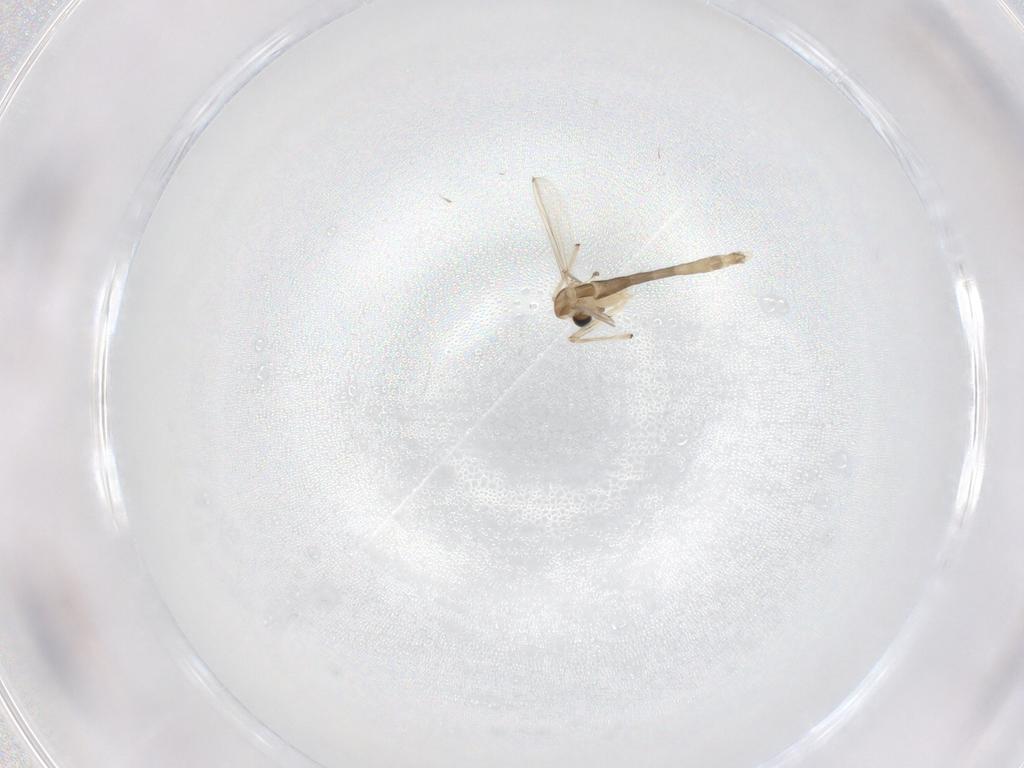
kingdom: Animalia
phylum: Arthropoda
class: Insecta
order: Diptera
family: Chironomidae
